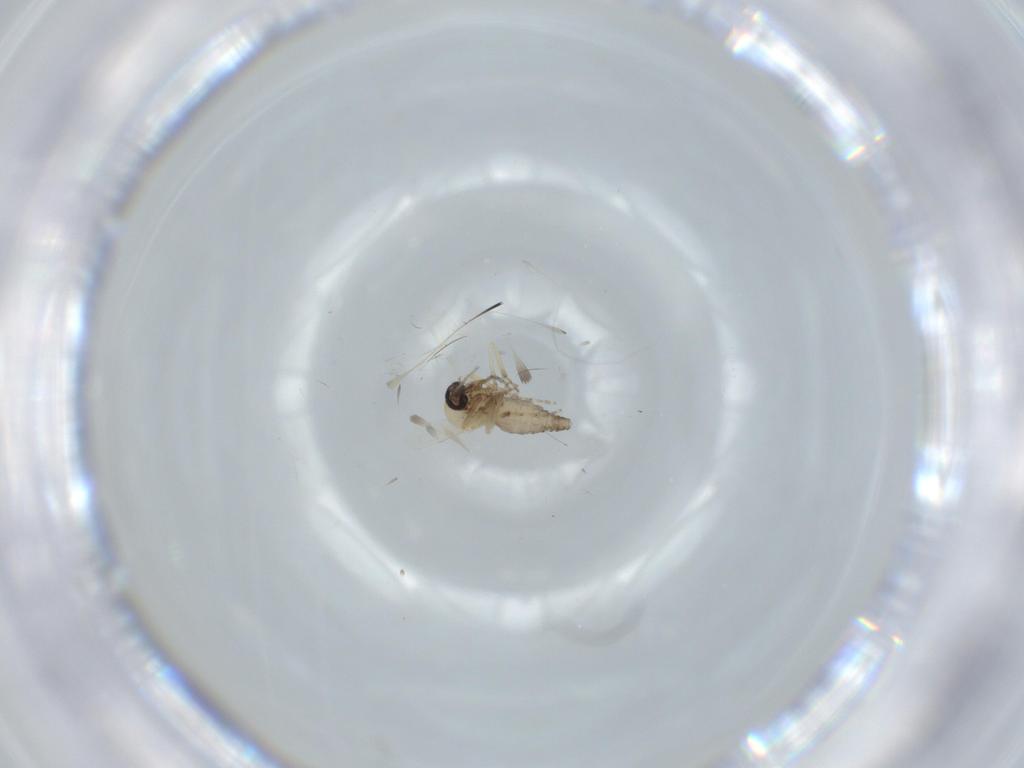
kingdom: Animalia
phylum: Arthropoda
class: Insecta
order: Diptera
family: Ceratopogonidae
